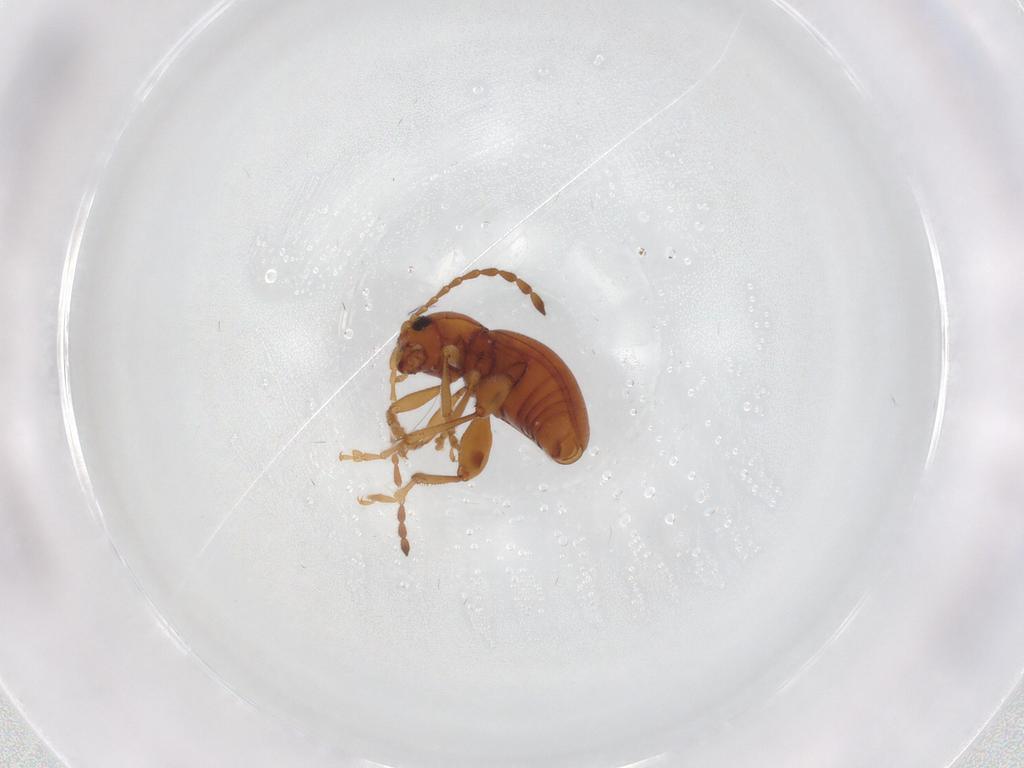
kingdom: Animalia
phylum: Arthropoda
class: Insecta
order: Coleoptera
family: Chrysomelidae
